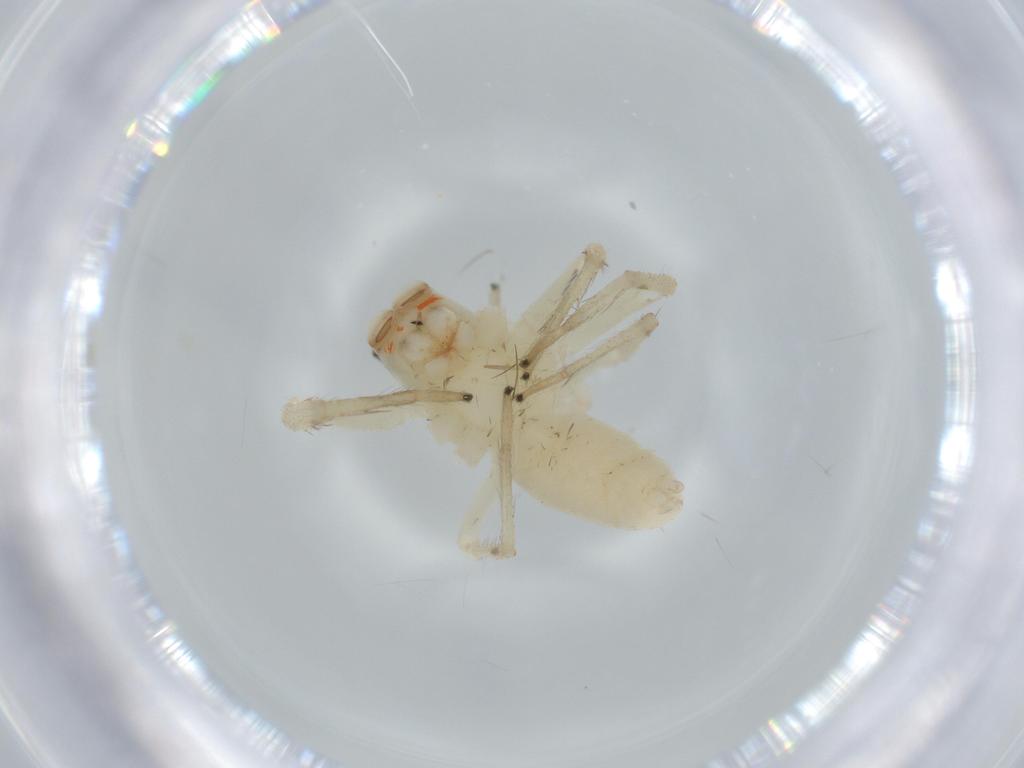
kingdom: Animalia
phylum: Arthropoda
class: Arachnida
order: Araneae
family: Salticidae
